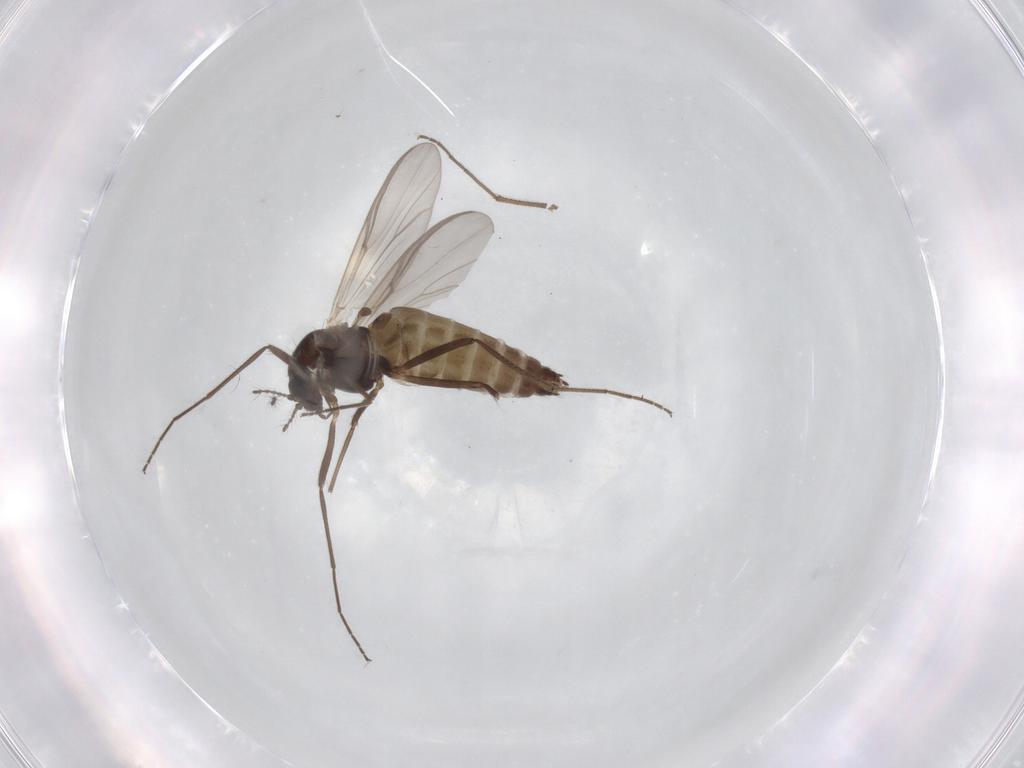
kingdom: Animalia
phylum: Arthropoda
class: Insecta
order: Diptera
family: Chironomidae
